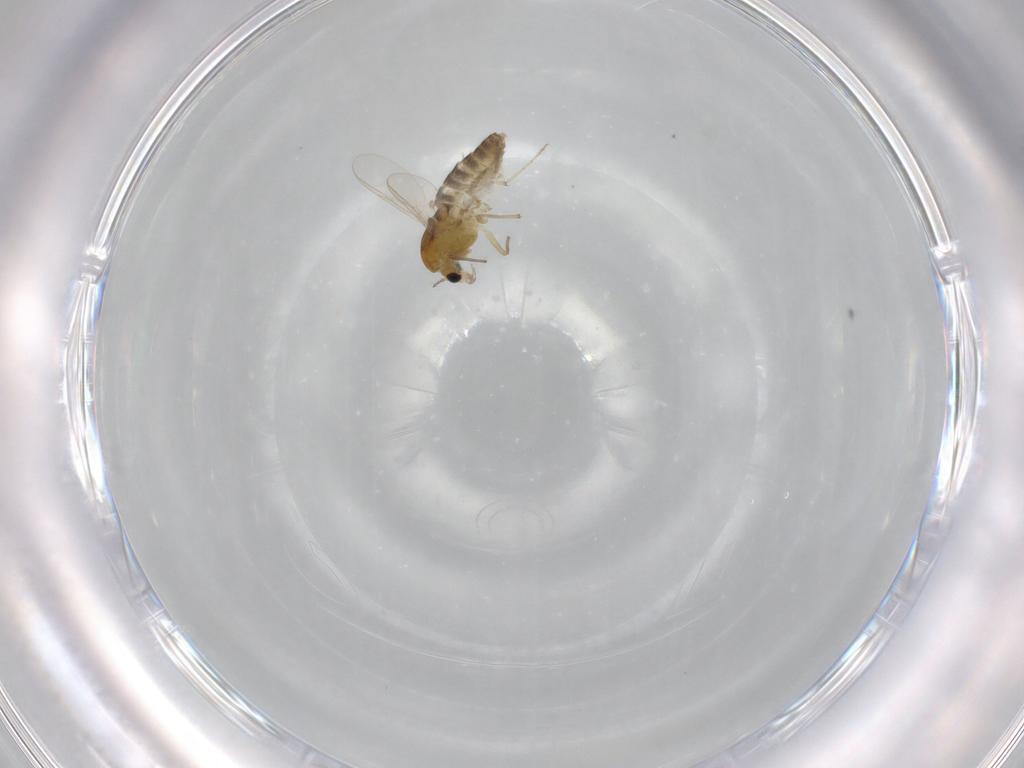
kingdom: Animalia
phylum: Arthropoda
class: Insecta
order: Diptera
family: Chironomidae
